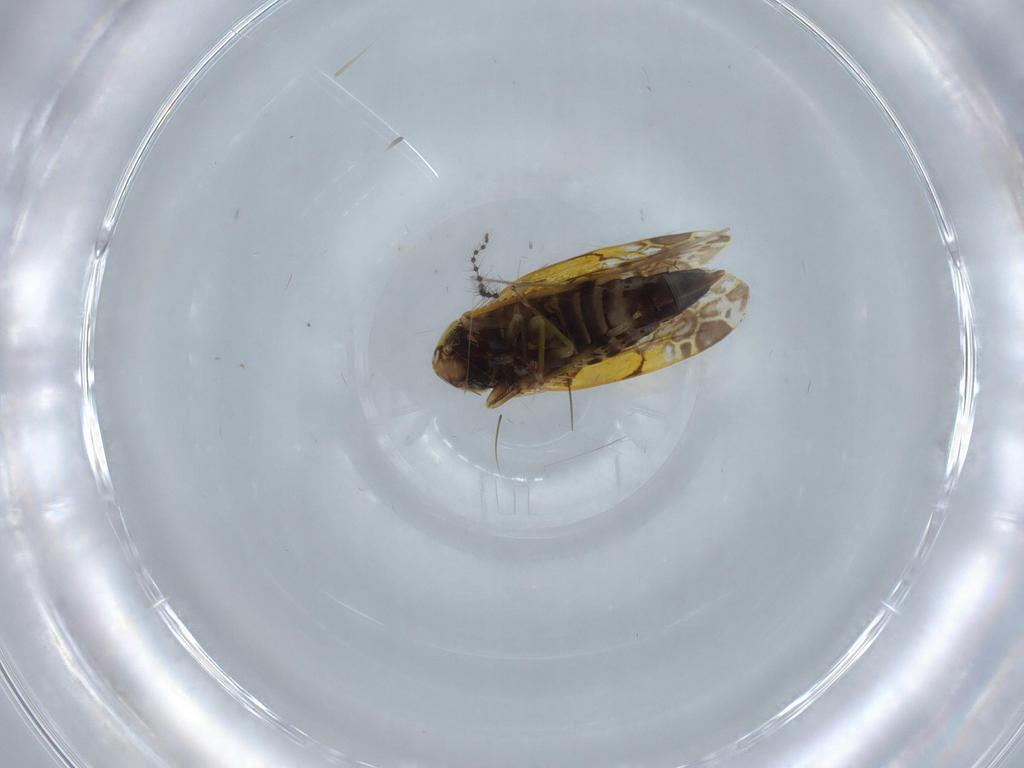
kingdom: Animalia
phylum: Arthropoda
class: Insecta
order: Hemiptera
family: Cicadellidae
